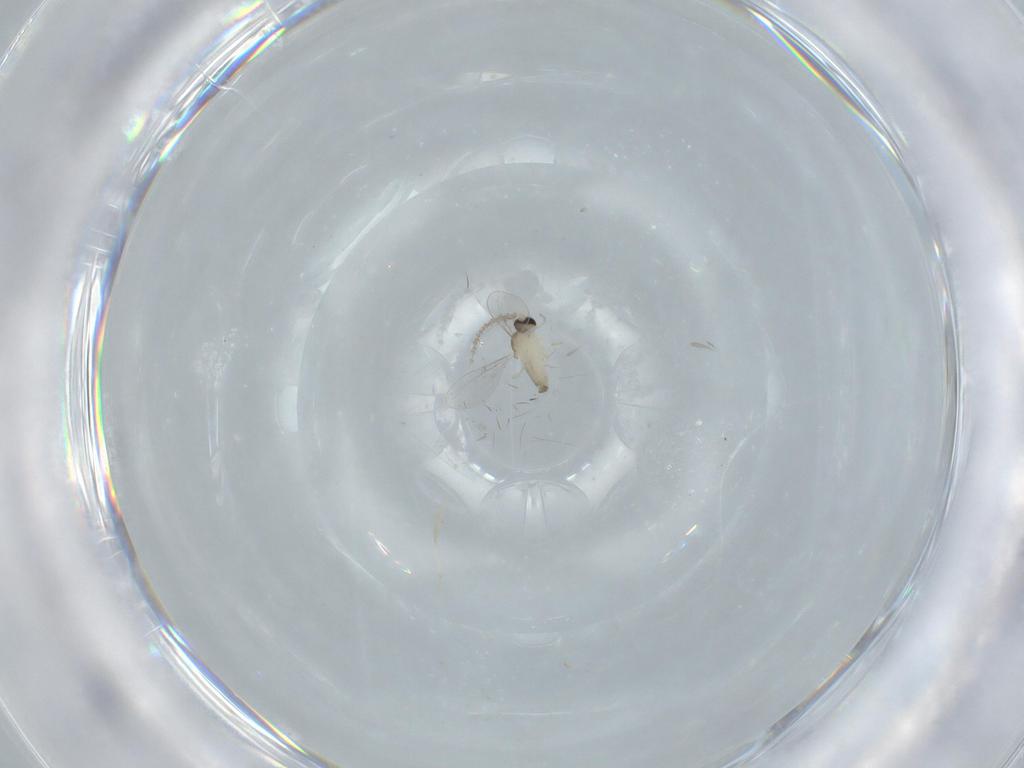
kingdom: Animalia
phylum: Arthropoda
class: Insecta
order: Diptera
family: Cecidomyiidae
